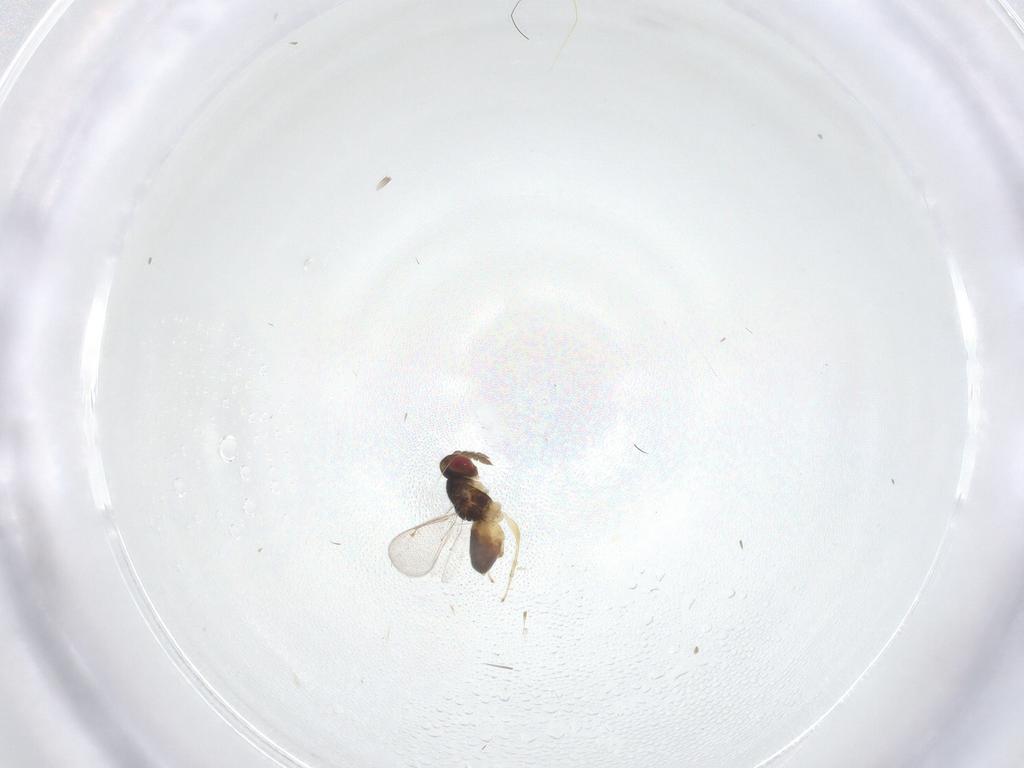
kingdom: Animalia
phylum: Arthropoda
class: Insecta
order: Hymenoptera
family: Eulophidae
